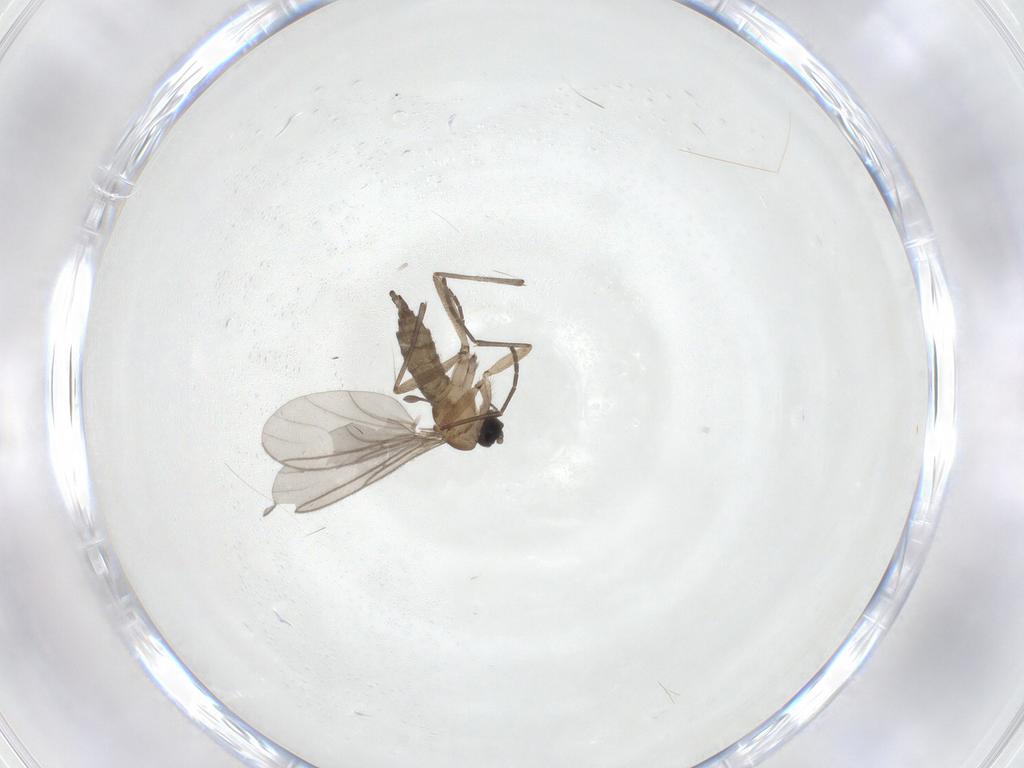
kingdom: Animalia
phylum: Arthropoda
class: Insecta
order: Diptera
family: Sciaridae
